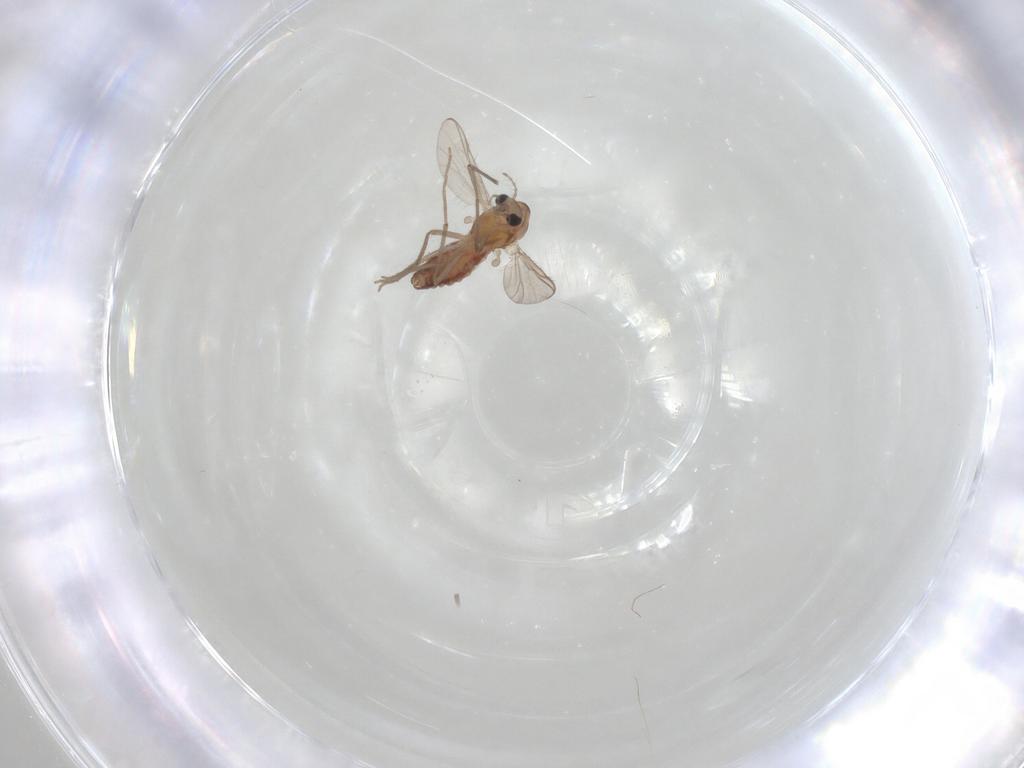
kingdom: Animalia
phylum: Arthropoda
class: Insecta
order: Diptera
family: Chironomidae
